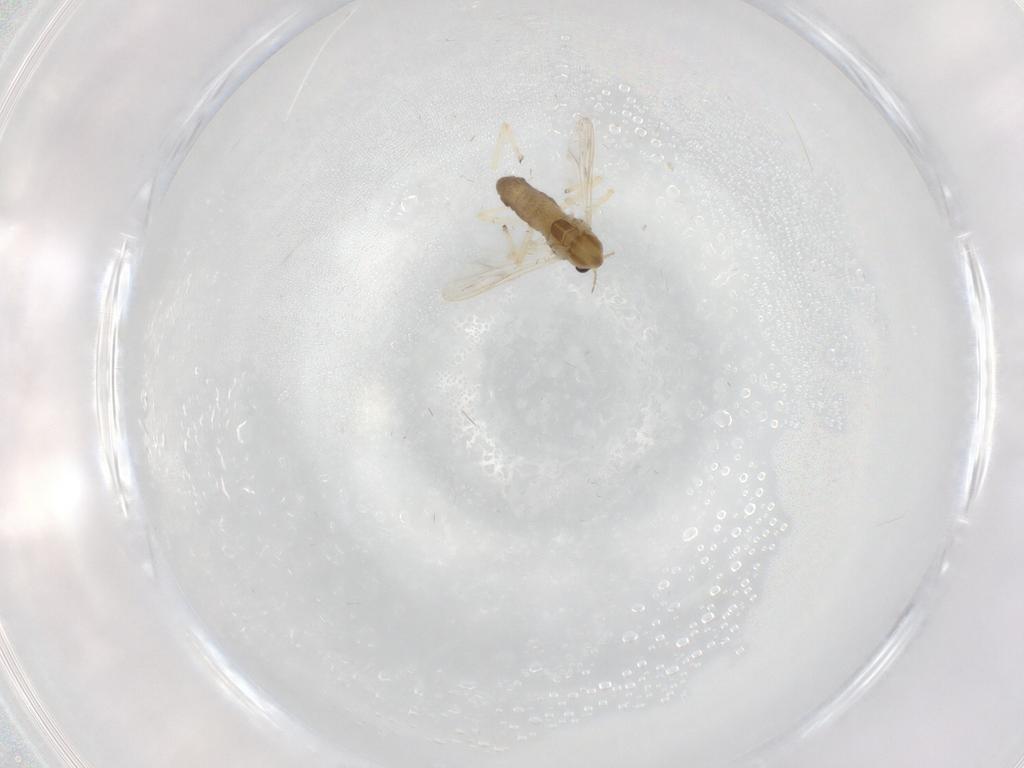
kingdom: Animalia
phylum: Arthropoda
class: Insecta
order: Diptera
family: Chironomidae
